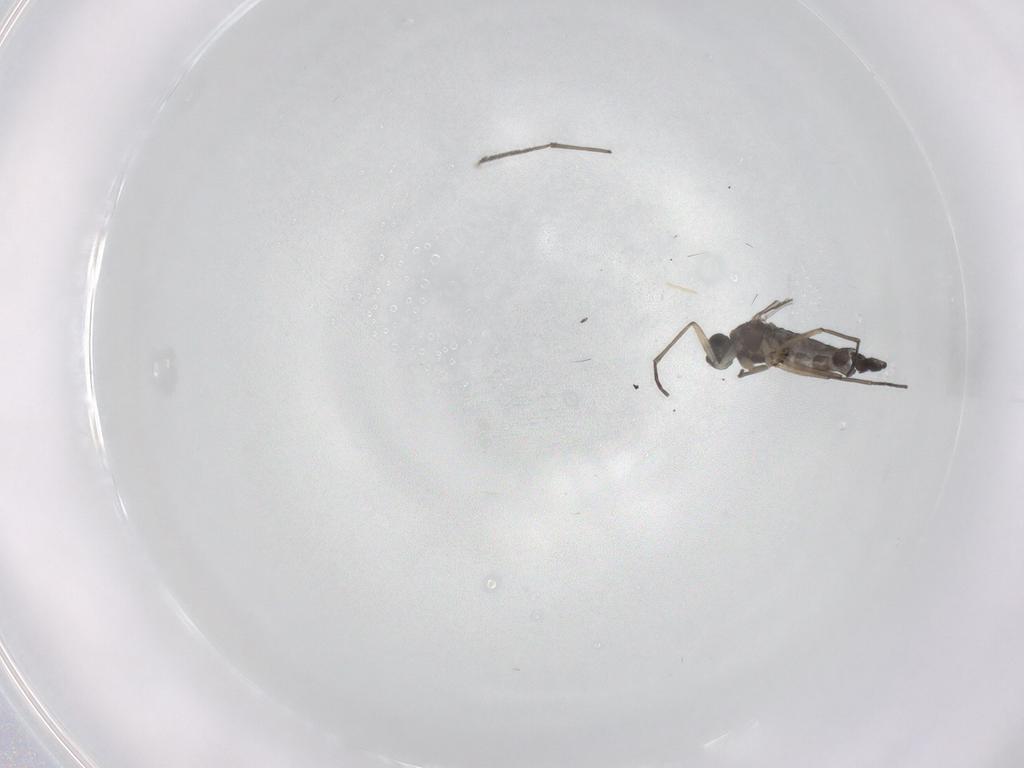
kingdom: Animalia
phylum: Arthropoda
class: Insecta
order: Diptera
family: Sciaridae
